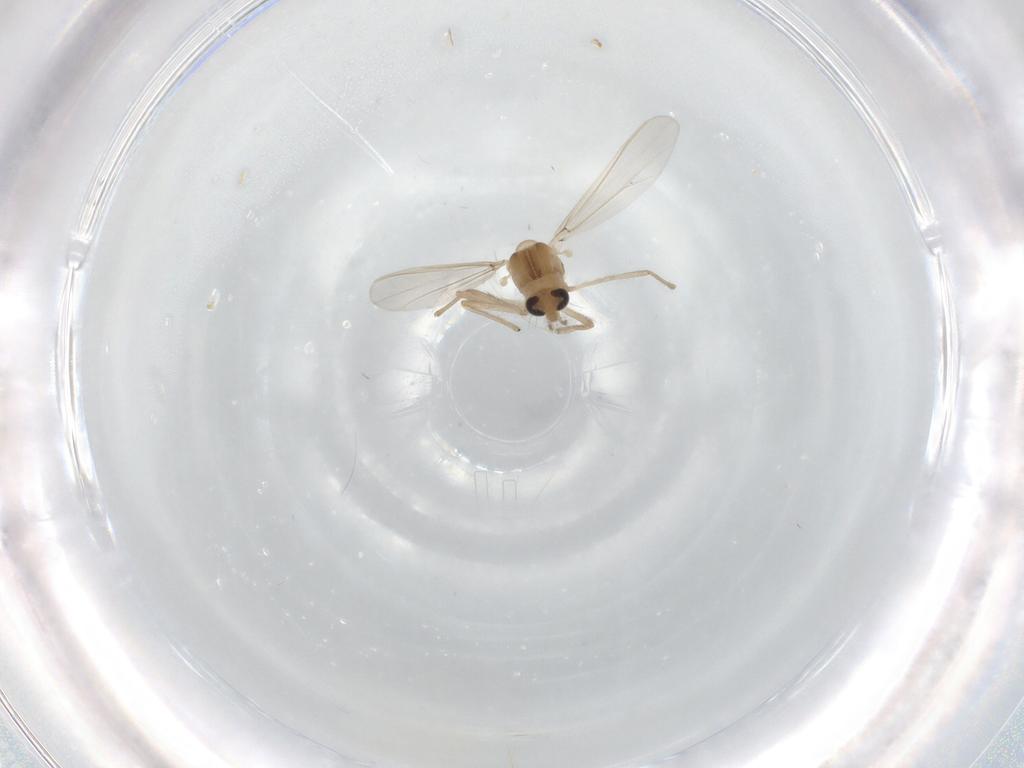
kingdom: Animalia
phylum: Arthropoda
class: Insecta
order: Diptera
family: Chironomidae
